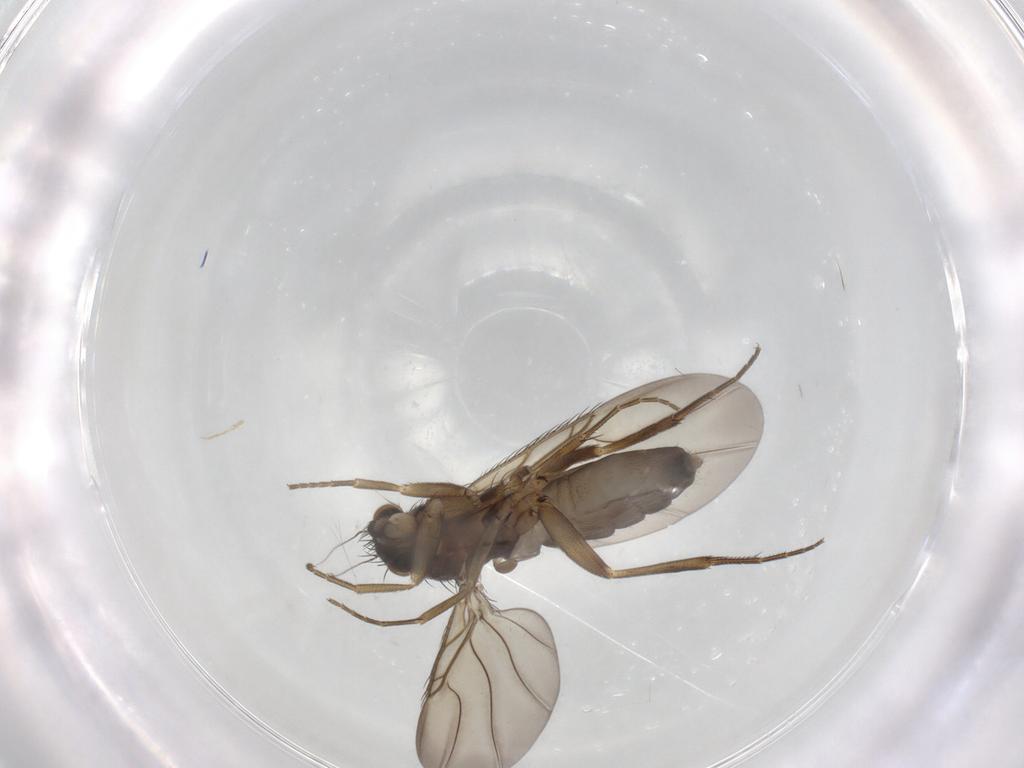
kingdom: Animalia
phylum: Arthropoda
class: Insecta
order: Diptera
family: Phoridae
